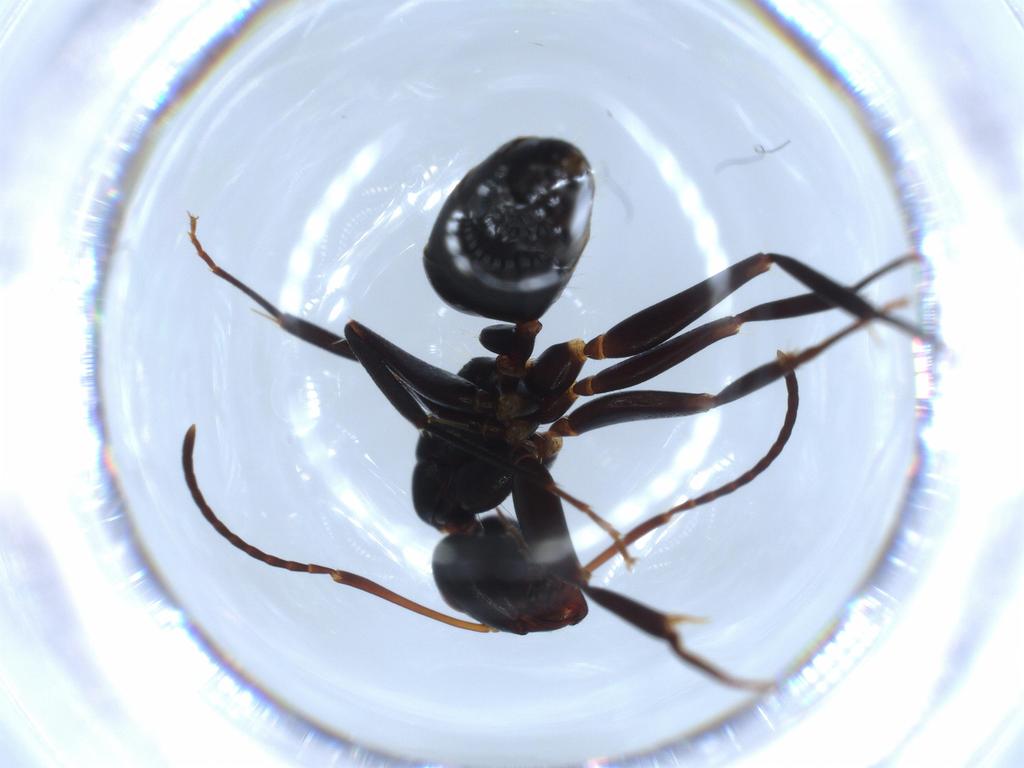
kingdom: Animalia
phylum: Arthropoda
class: Insecta
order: Hymenoptera
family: Formicidae
